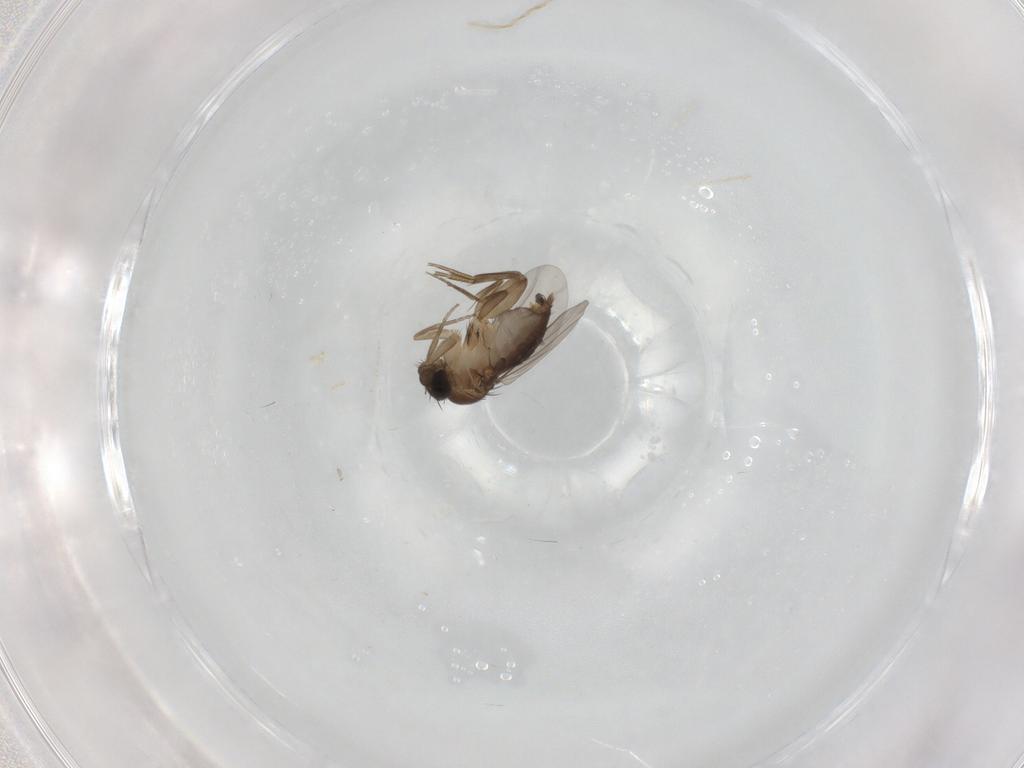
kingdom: Animalia
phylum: Arthropoda
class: Insecta
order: Diptera
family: Phoridae
